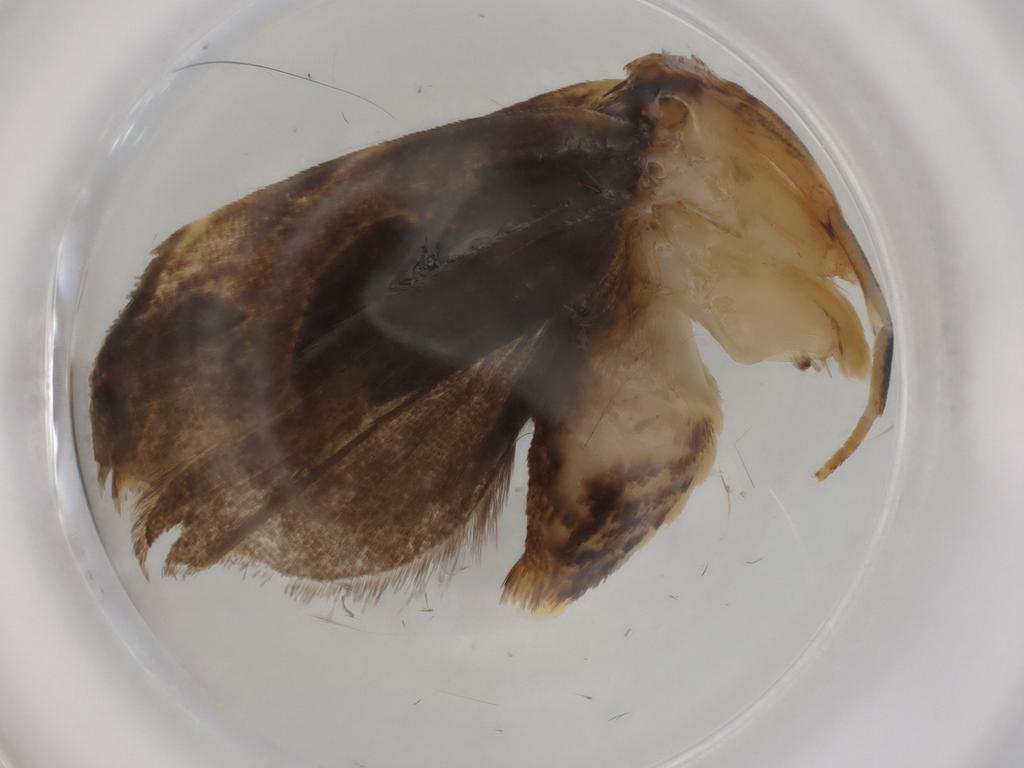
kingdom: Animalia
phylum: Arthropoda
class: Insecta
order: Lepidoptera
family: Gelechiidae
